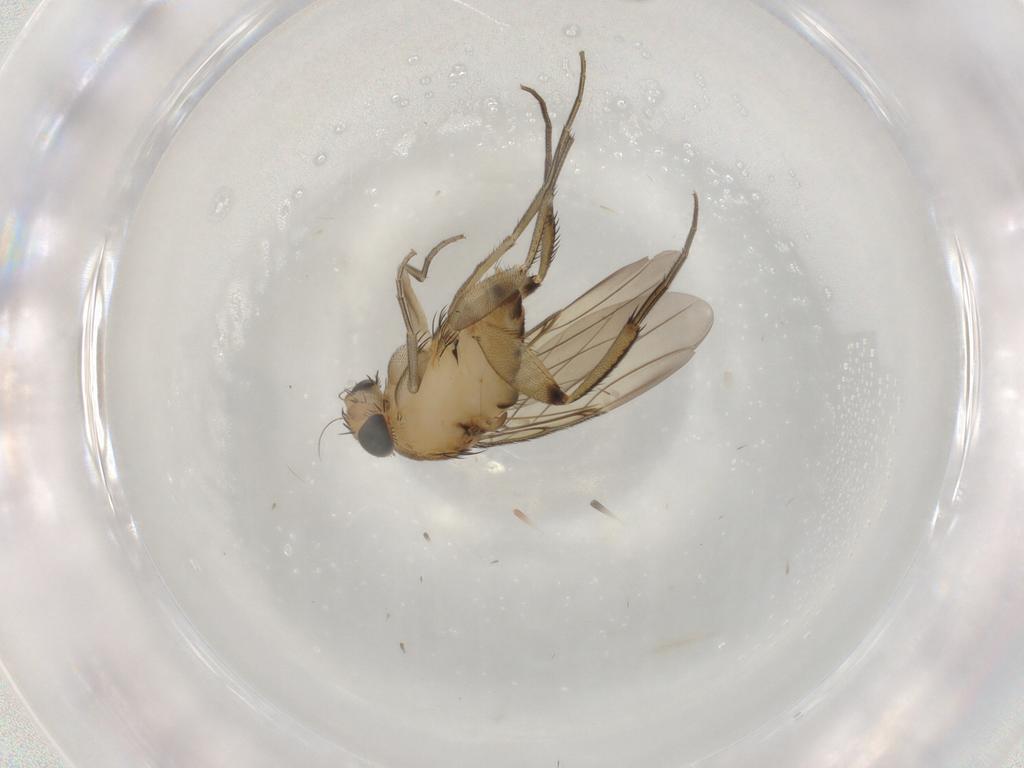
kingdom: Animalia
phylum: Arthropoda
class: Insecta
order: Diptera
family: Phoridae
